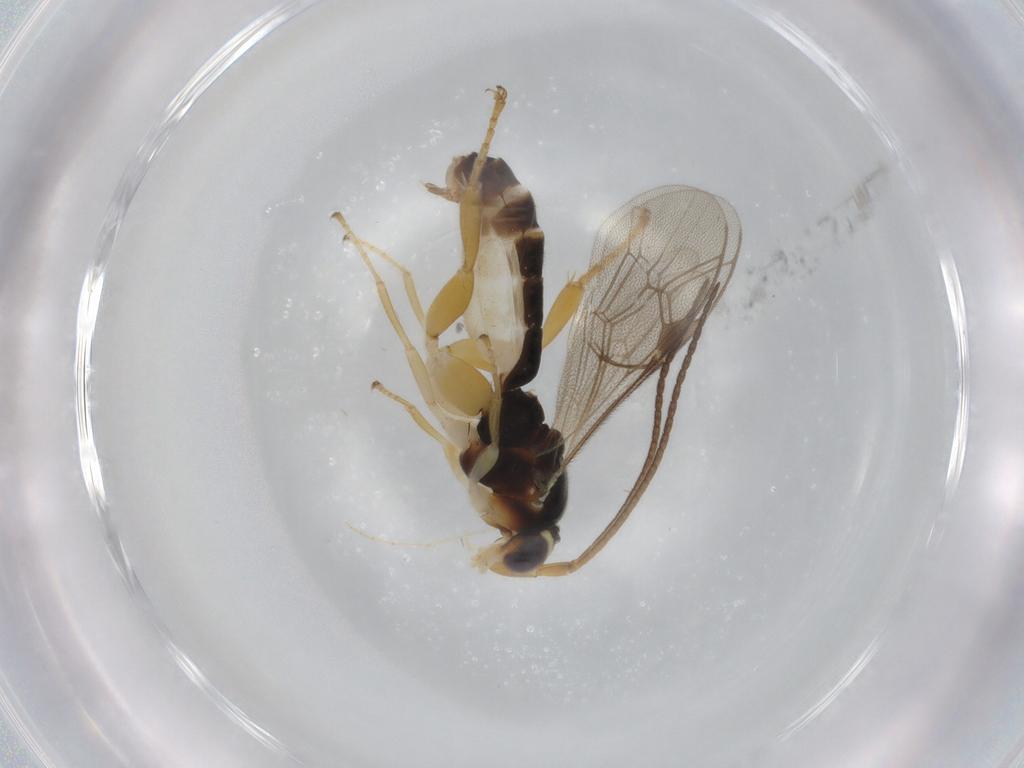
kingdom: Animalia
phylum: Arthropoda
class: Insecta
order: Hymenoptera
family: Ichneumonidae
